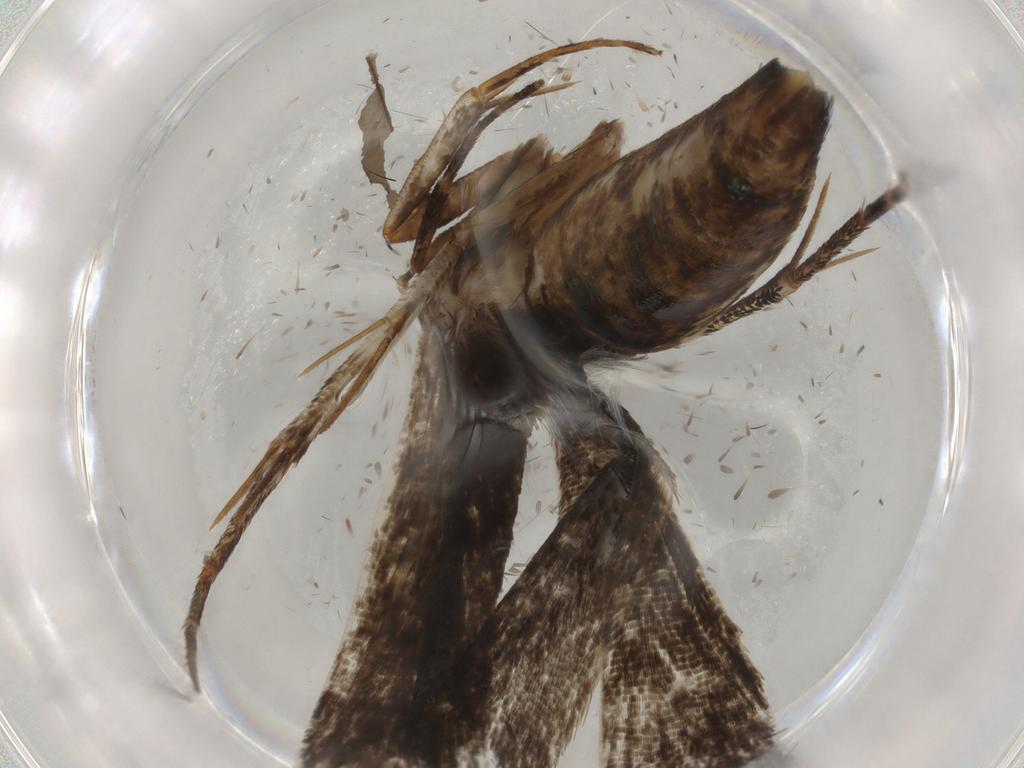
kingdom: Animalia
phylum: Arthropoda
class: Insecta
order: Lepidoptera
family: Gelechiidae
